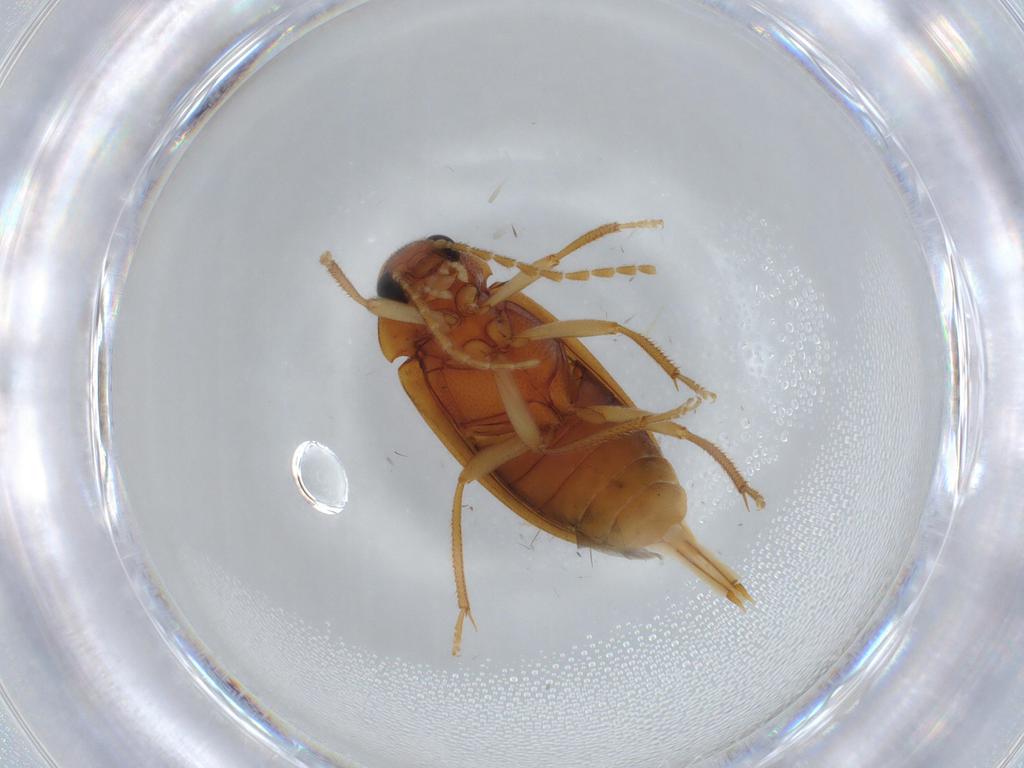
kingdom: Animalia
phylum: Arthropoda
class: Insecta
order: Coleoptera
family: Ptilodactylidae
